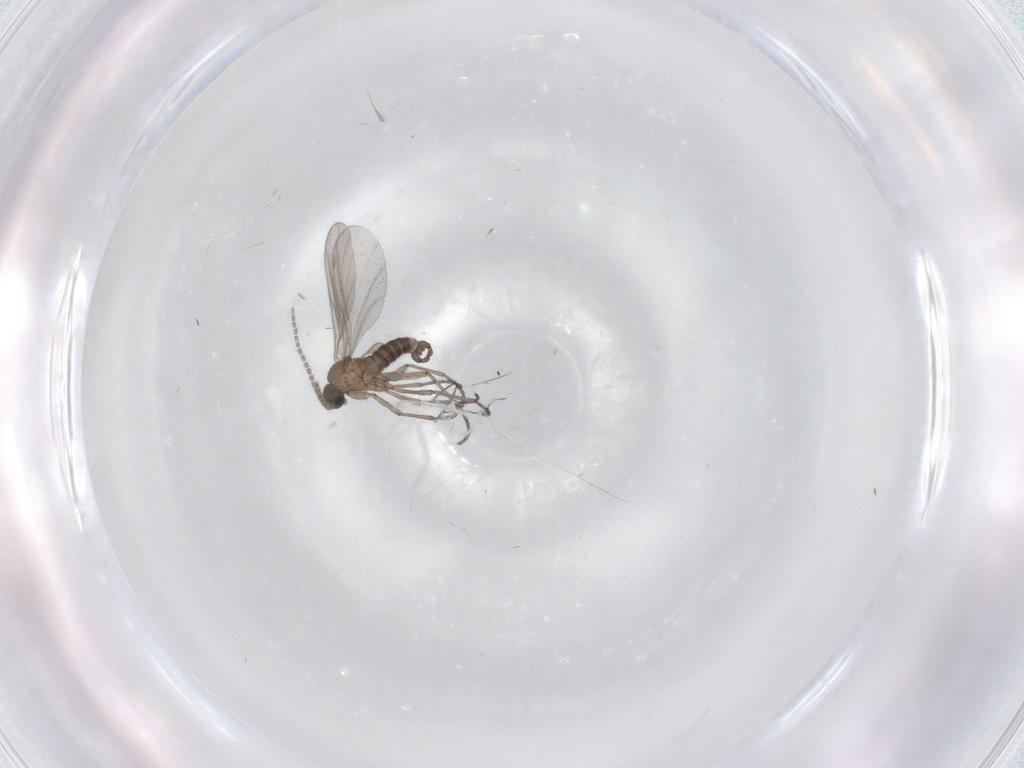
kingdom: Animalia
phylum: Arthropoda
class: Insecta
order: Diptera
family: Sciaridae
